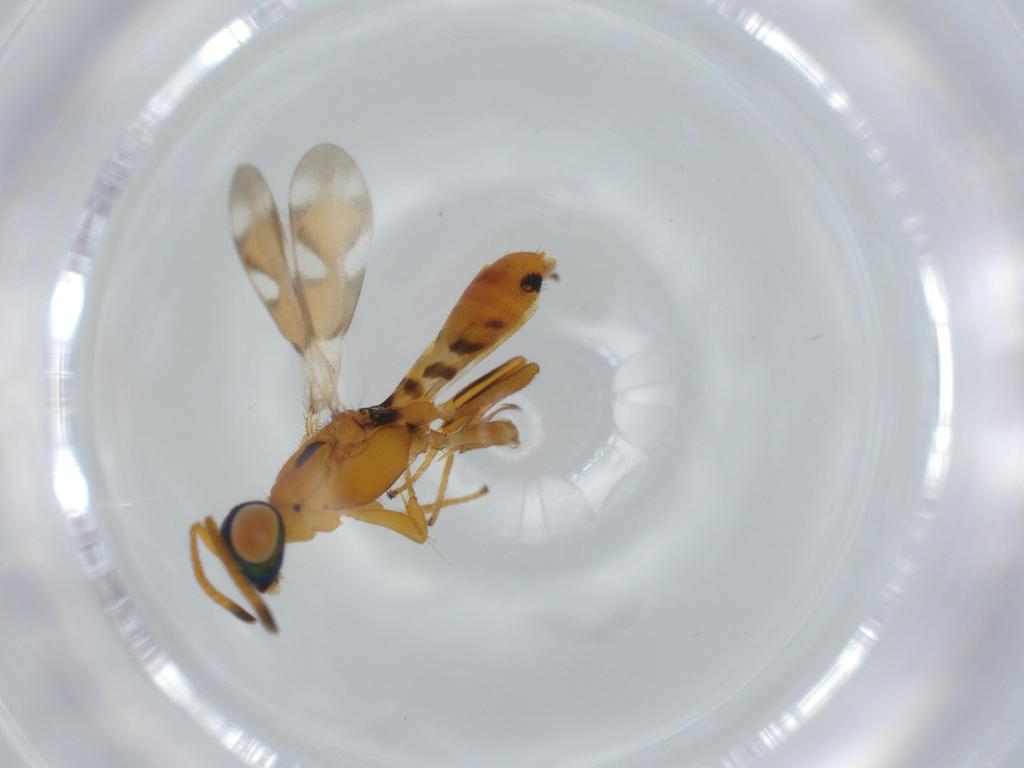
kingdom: Animalia
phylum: Arthropoda
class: Insecta
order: Hymenoptera
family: Eupelmidae
